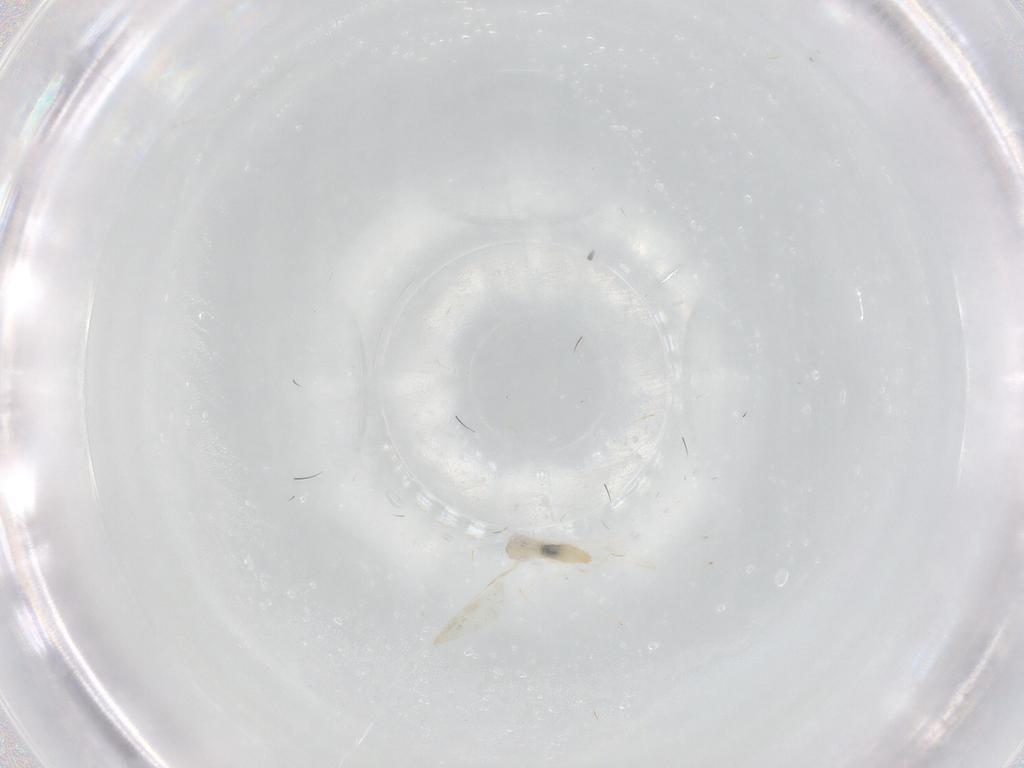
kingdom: Animalia
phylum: Arthropoda
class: Insecta
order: Diptera
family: Cecidomyiidae
